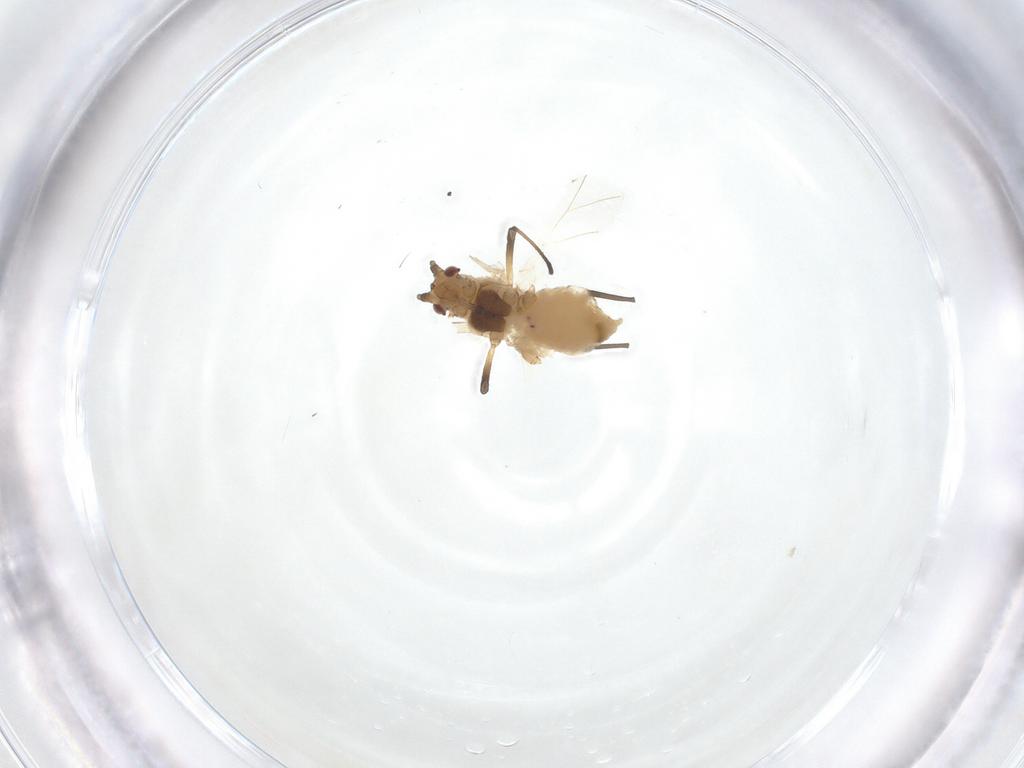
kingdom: Animalia
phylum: Arthropoda
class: Insecta
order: Hemiptera
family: Aphididae
